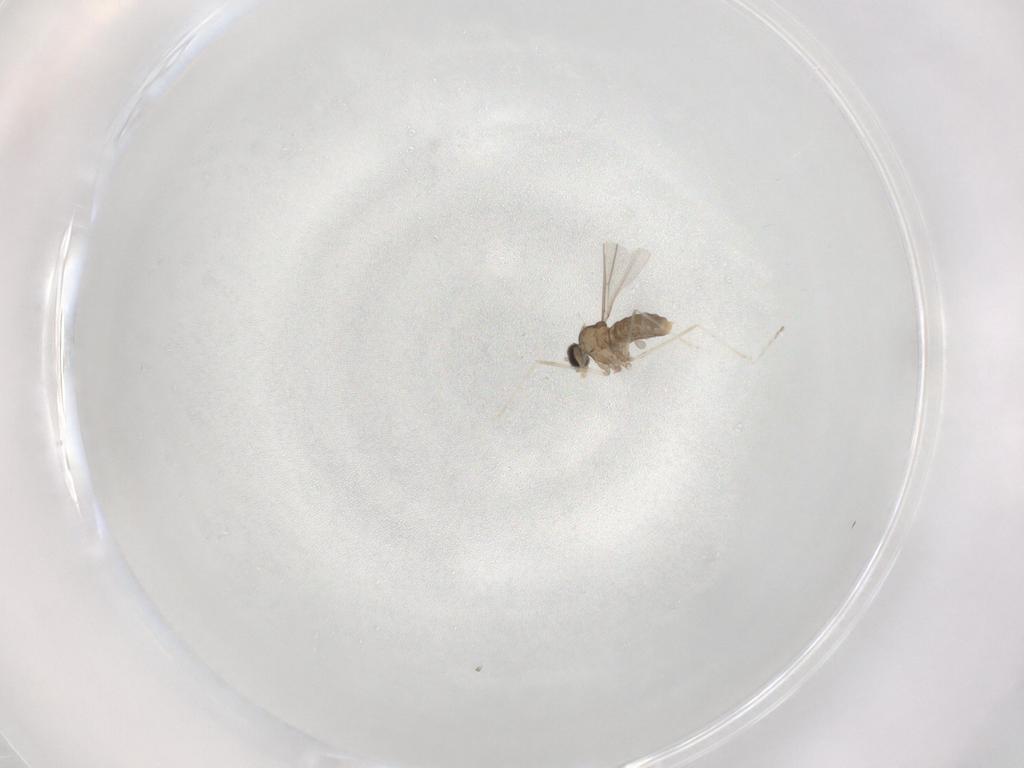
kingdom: Animalia
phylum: Arthropoda
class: Insecta
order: Diptera
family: Cecidomyiidae
